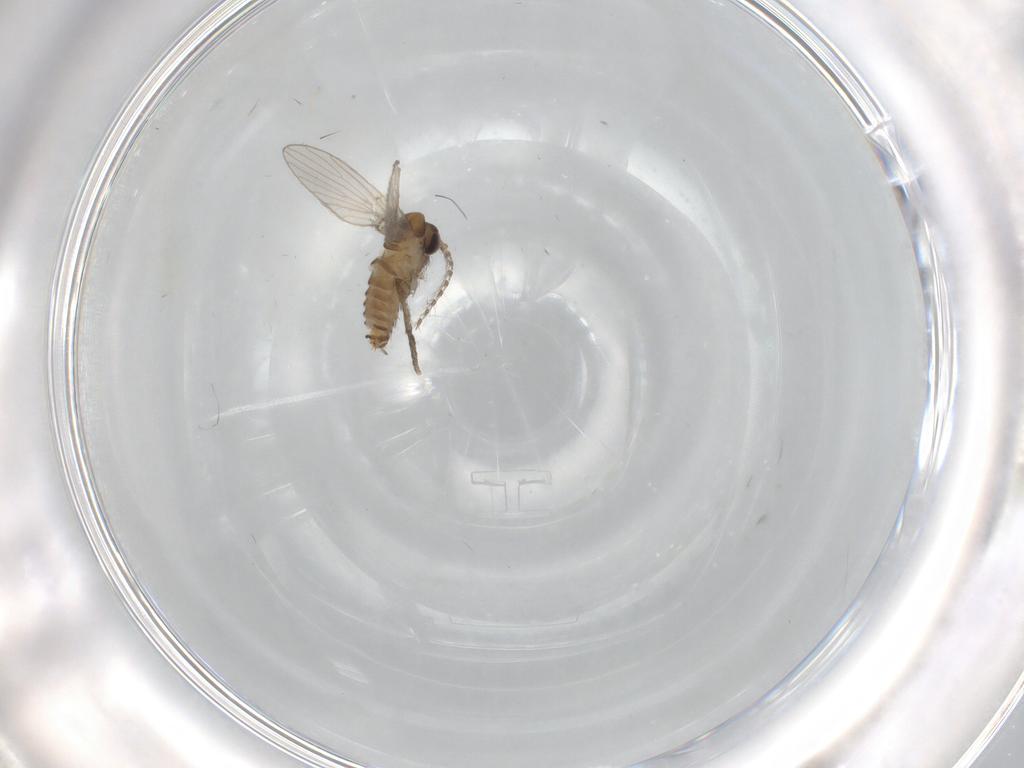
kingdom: Animalia
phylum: Arthropoda
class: Insecta
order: Diptera
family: Psychodidae
